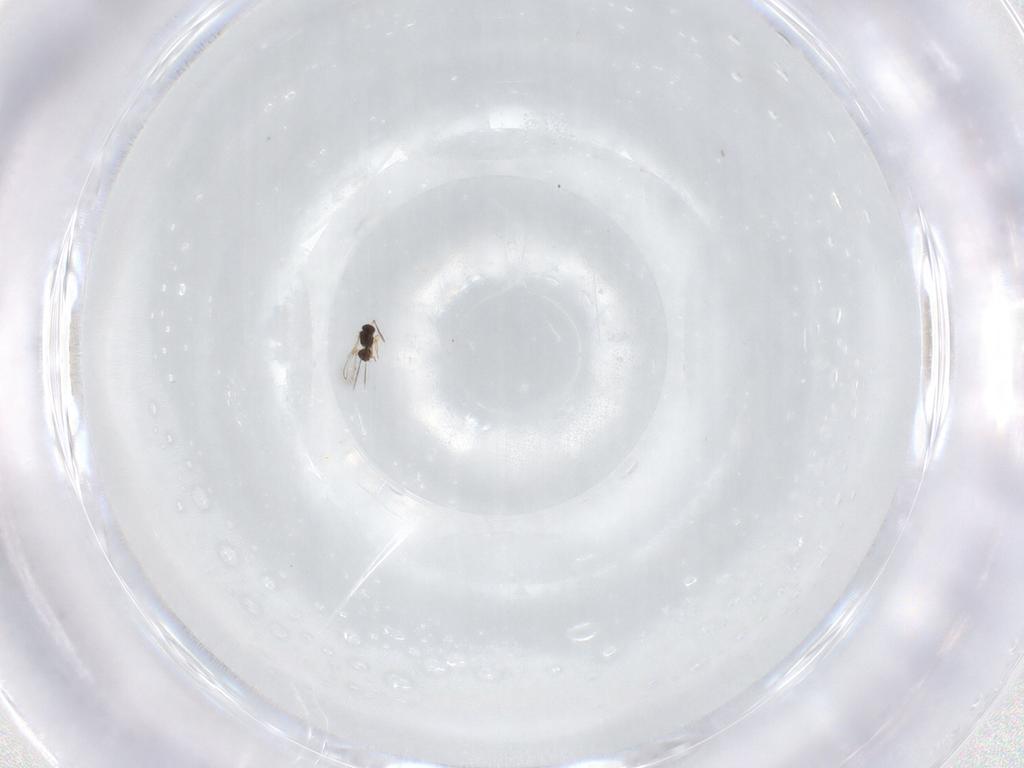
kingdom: Animalia
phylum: Arthropoda
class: Insecta
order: Hymenoptera
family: Mymaridae
